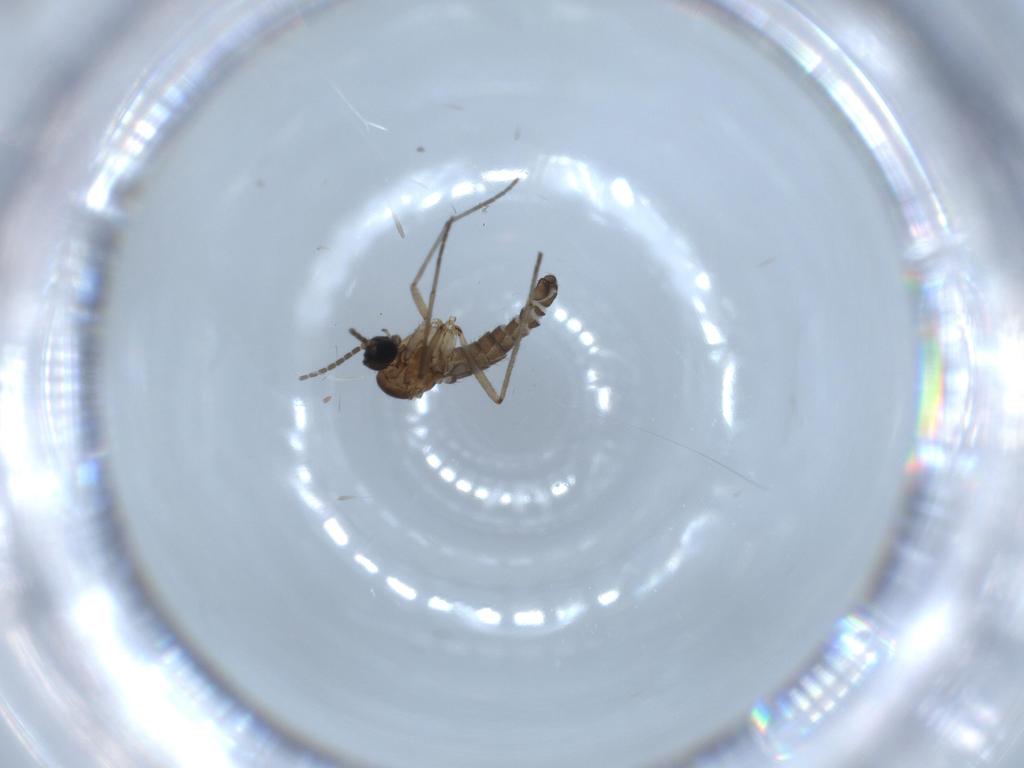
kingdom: Animalia
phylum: Arthropoda
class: Insecta
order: Diptera
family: Sciaridae
